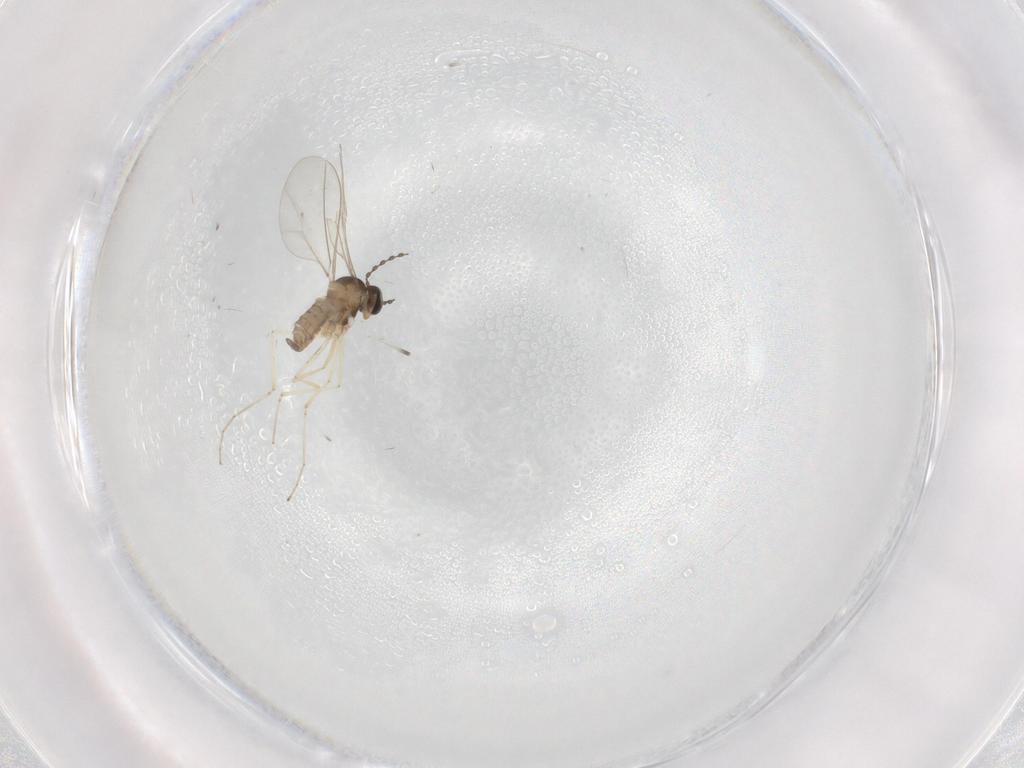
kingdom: Animalia
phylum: Arthropoda
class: Insecta
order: Diptera
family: Cecidomyiidae
